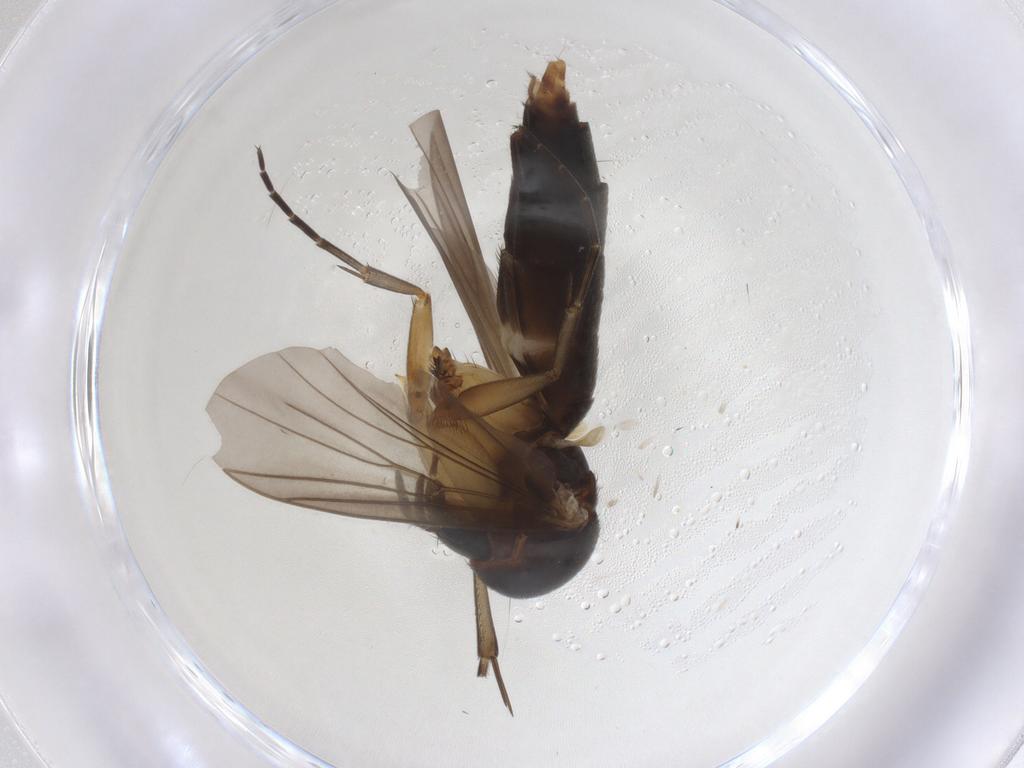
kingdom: Animalia
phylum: Arthropoda
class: Insecta
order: Diptera
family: Mycetophilidae
